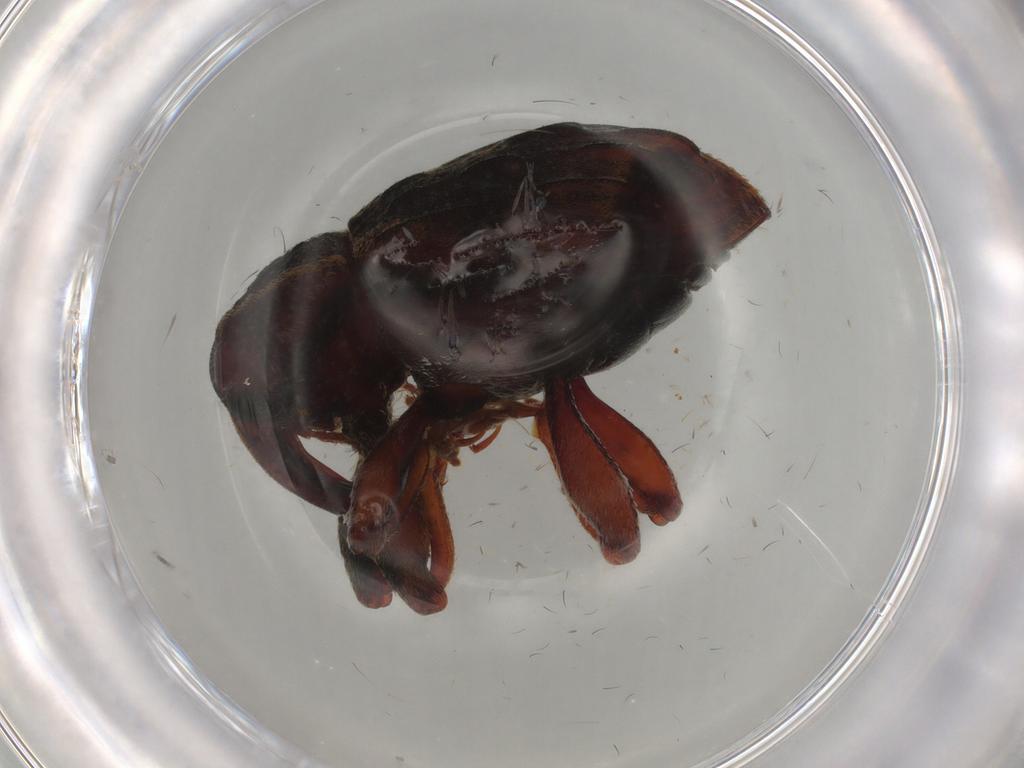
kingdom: Animalia
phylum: Arthropoda
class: Insecta
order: Coleoptera
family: Curculionidae
